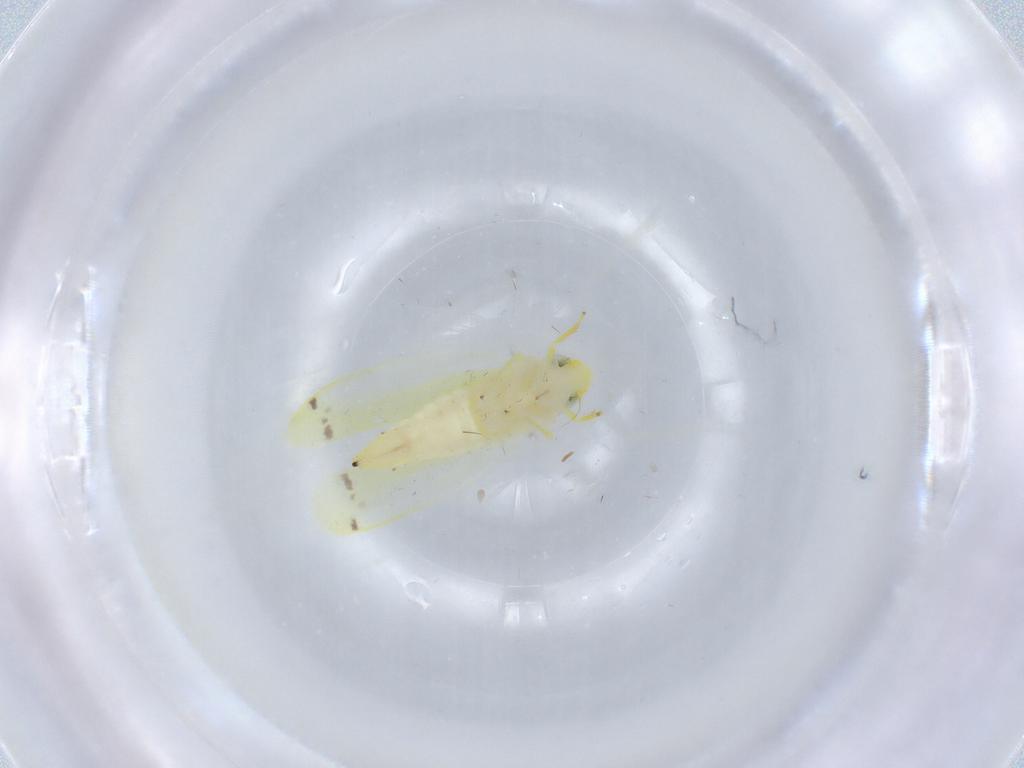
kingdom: Animalia
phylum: Arthropoda
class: Insecta
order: Hemiptera
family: Cicadellidae
